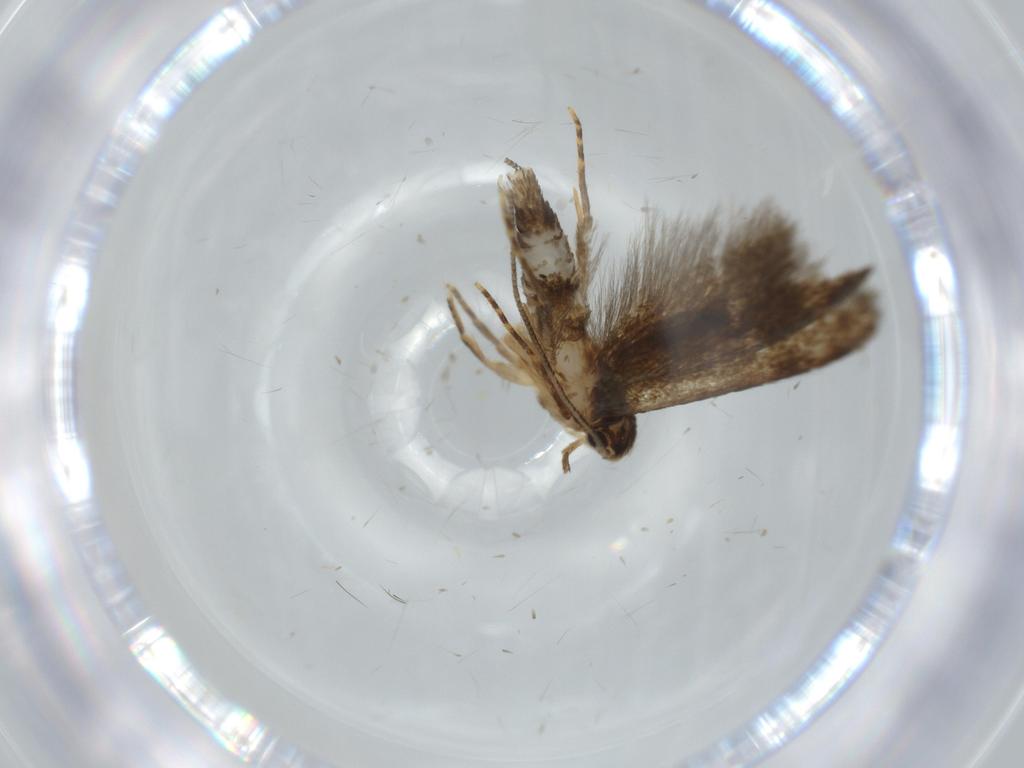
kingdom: Animalia
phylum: Arthropoda
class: Insecta
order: Lepidoptera
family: Tineidae
